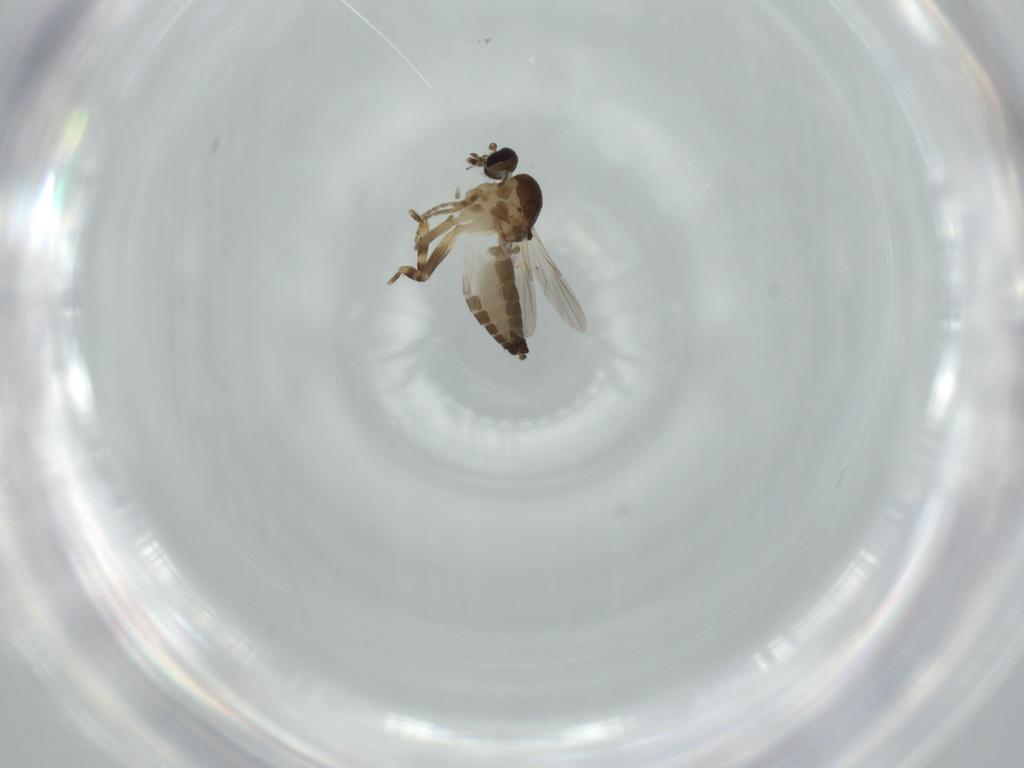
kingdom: Animalia
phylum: Arthropoda
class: Insecta
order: Diptera
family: Ceratopogonidae
